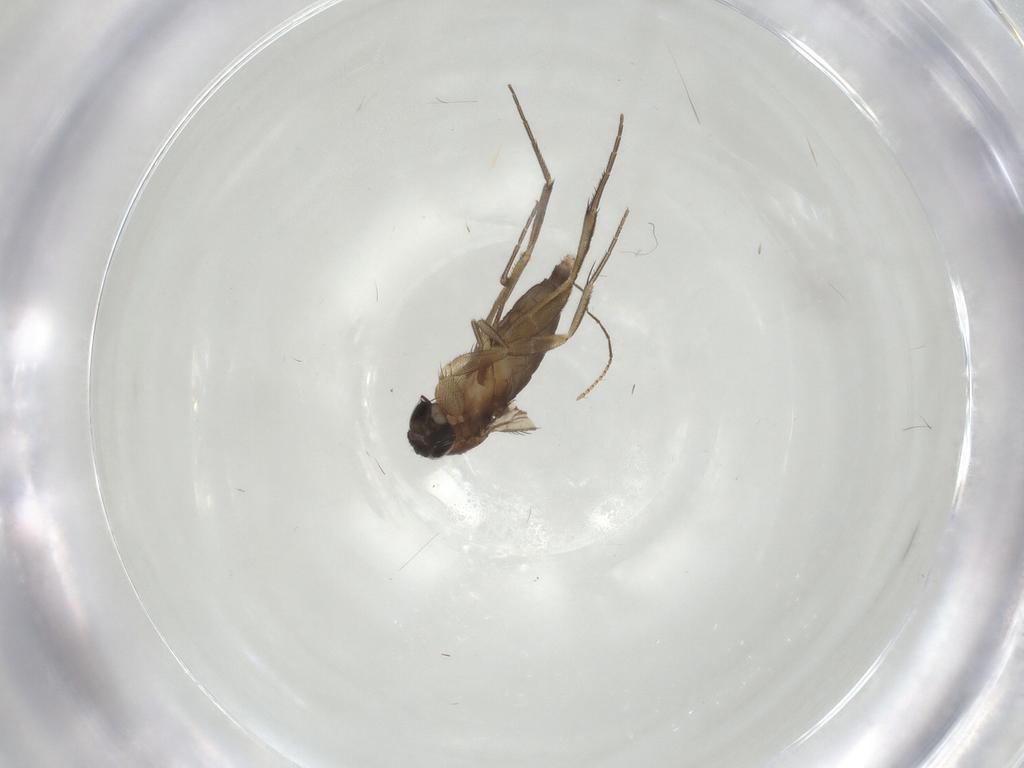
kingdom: Animalia
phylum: Arthropoda
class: Insecta
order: Diptera
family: Phoridae
